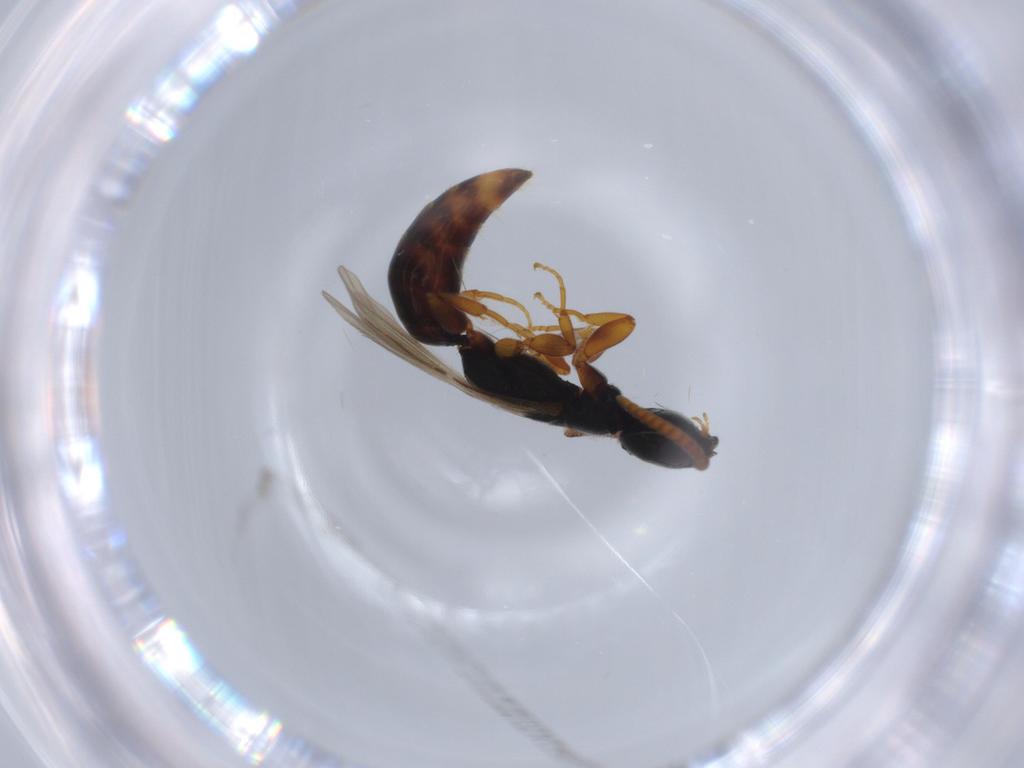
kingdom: Animalia
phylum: Arthropoda
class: Insecta
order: Hymenoptera
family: Bethylidae
